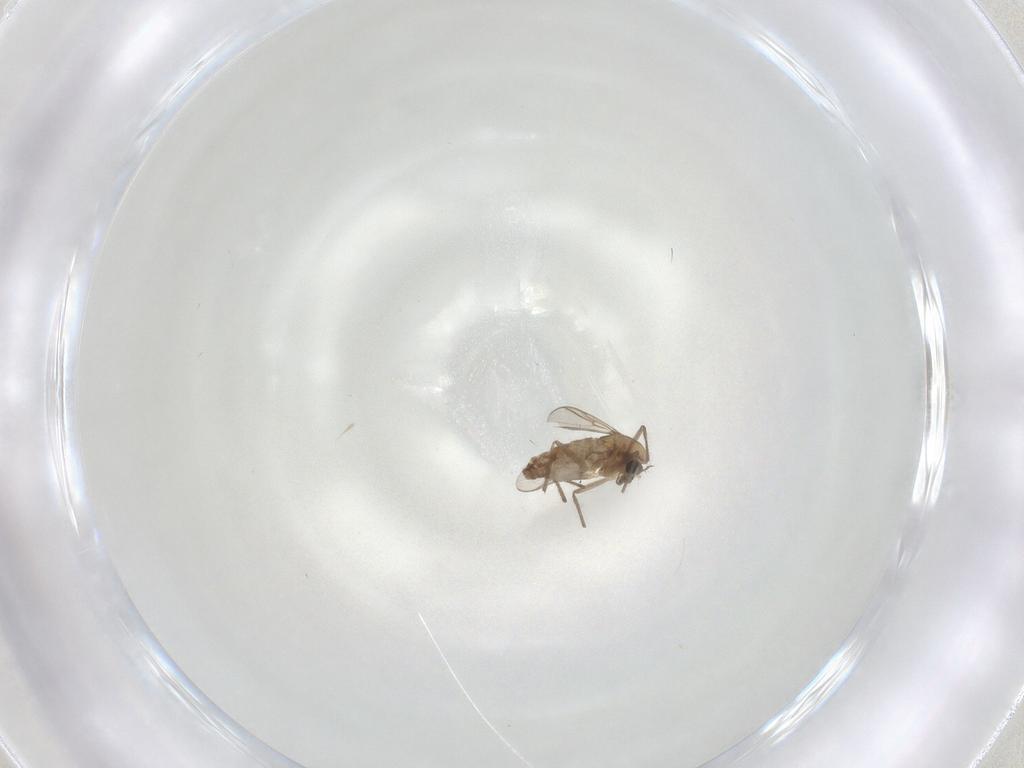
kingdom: Animalia
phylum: Arthropoda
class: Insecta
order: Diptera
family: Chironomidae
